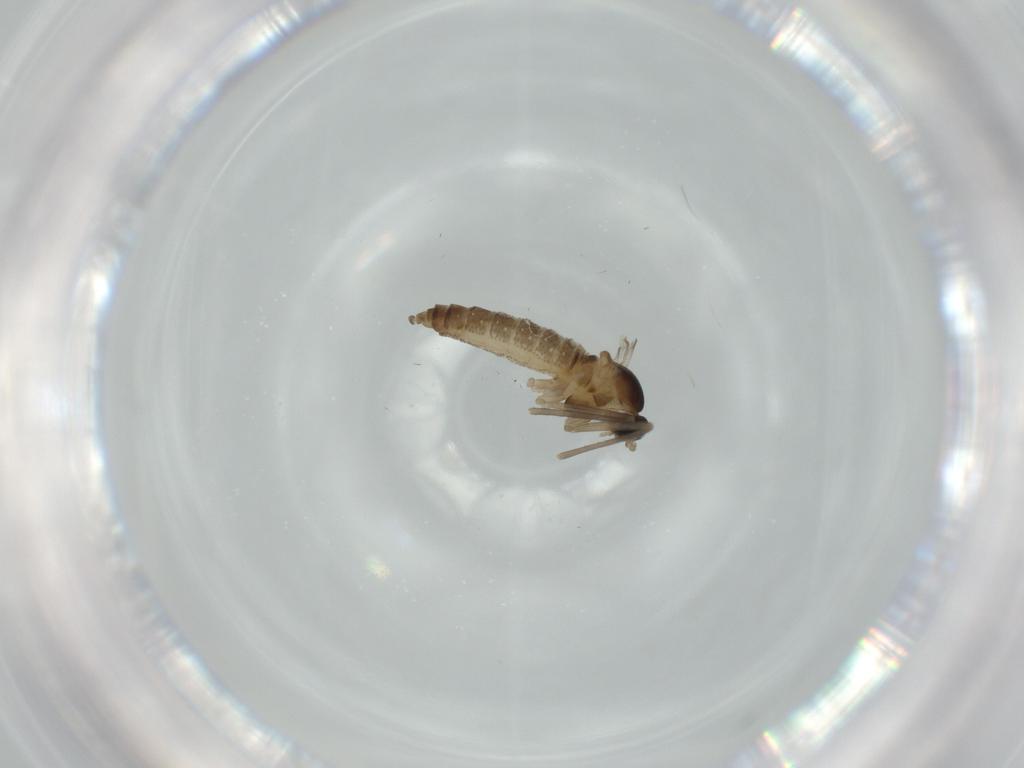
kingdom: Animalia
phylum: Arthropoda
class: Insecta
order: Diptera
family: Cecidomyiidae
